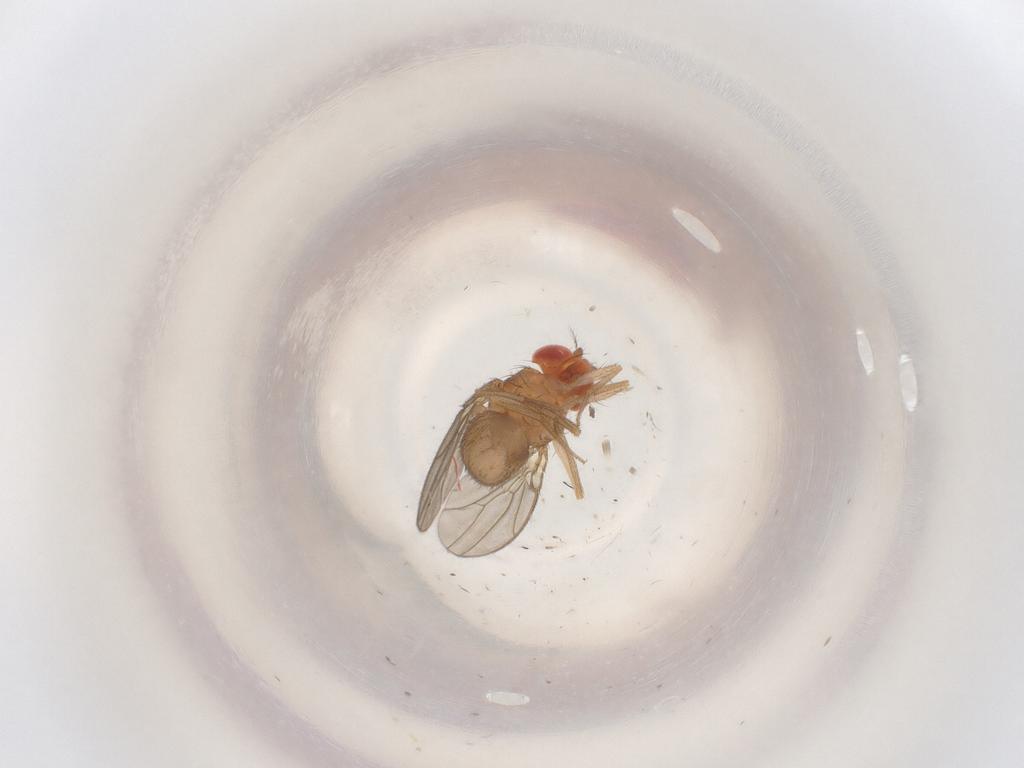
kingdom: Animalia
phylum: Arthropoda
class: Insecta
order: Diptera
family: Drosophilidae
